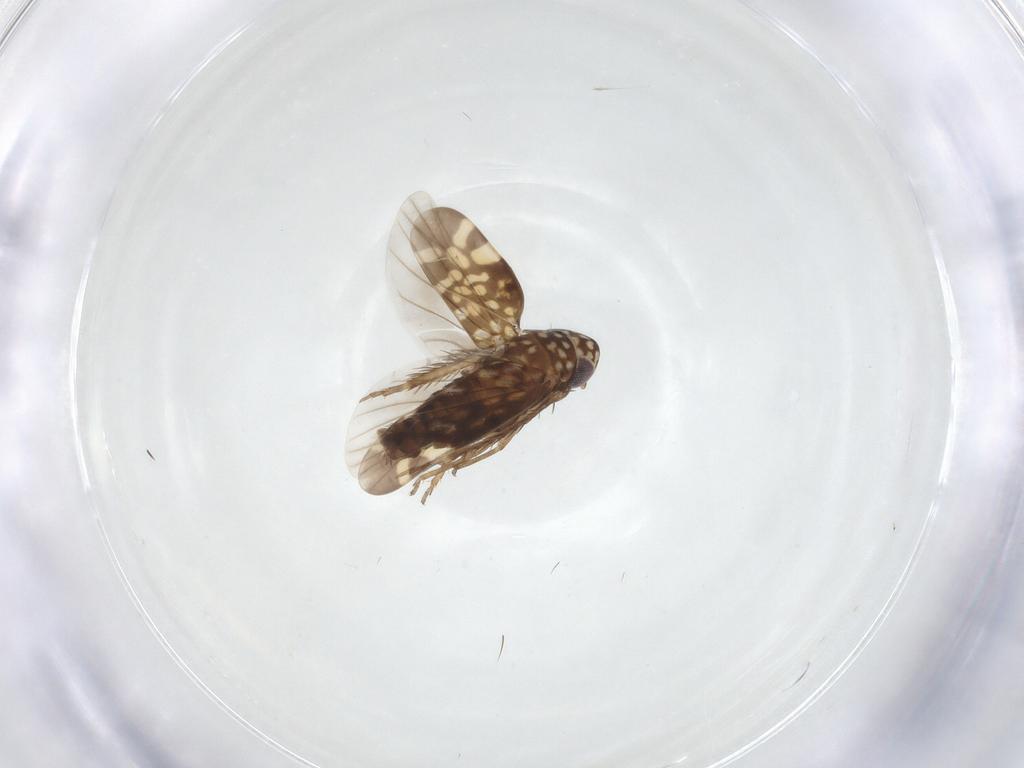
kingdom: Animalia
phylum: Arthropoda
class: Insecta
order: Hemiptera
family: Cicadellidae
